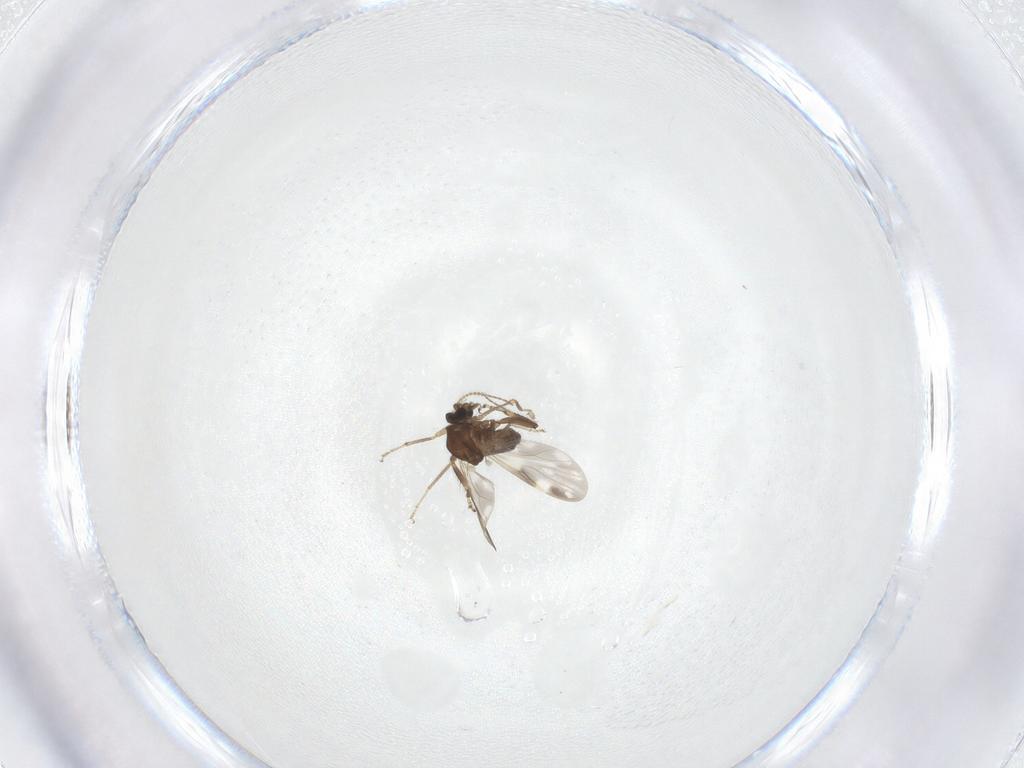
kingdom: Animalia
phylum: Arthropoda
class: Insecta
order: Diptera
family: Ceratopogonidae
